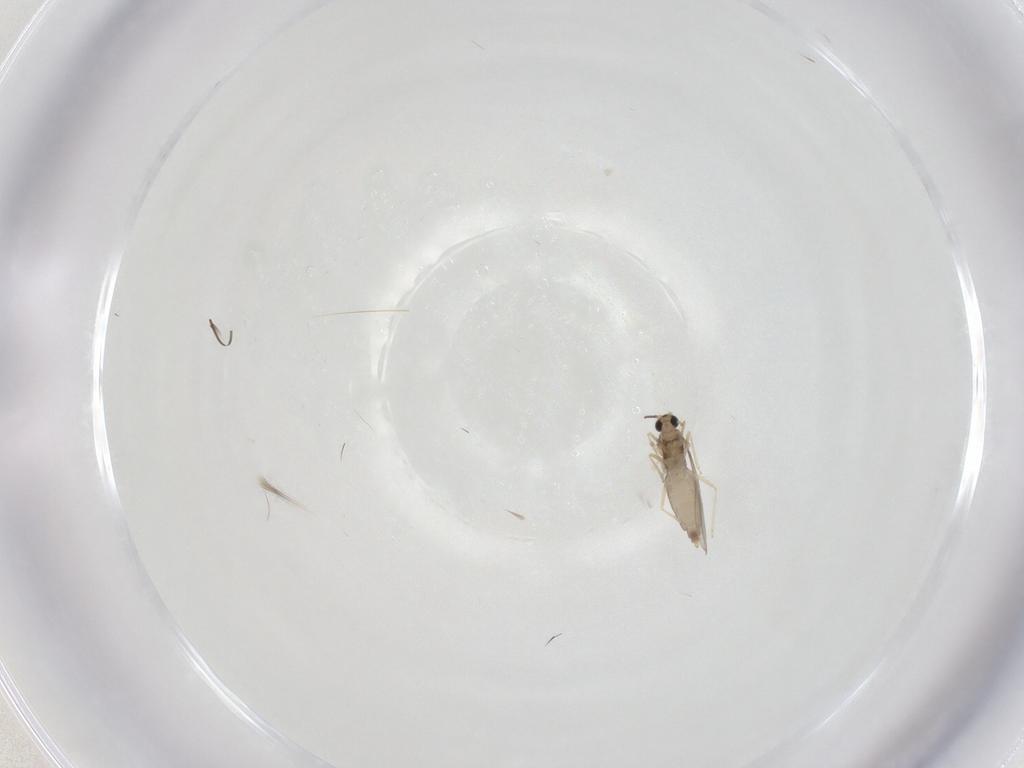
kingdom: Animalia
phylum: Arthropoda
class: Insecta
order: Diptera
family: Cecidomyiidae
